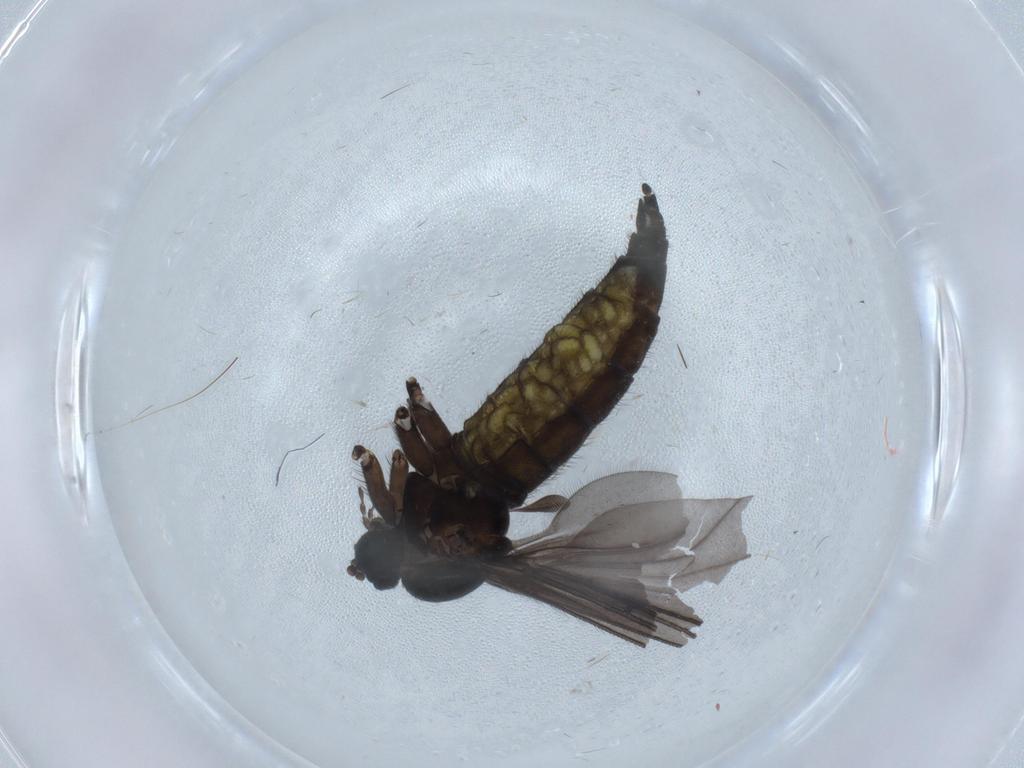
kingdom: Animalia
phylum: Arthropoda
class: Insecta
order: Diptera
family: Sciaridae
